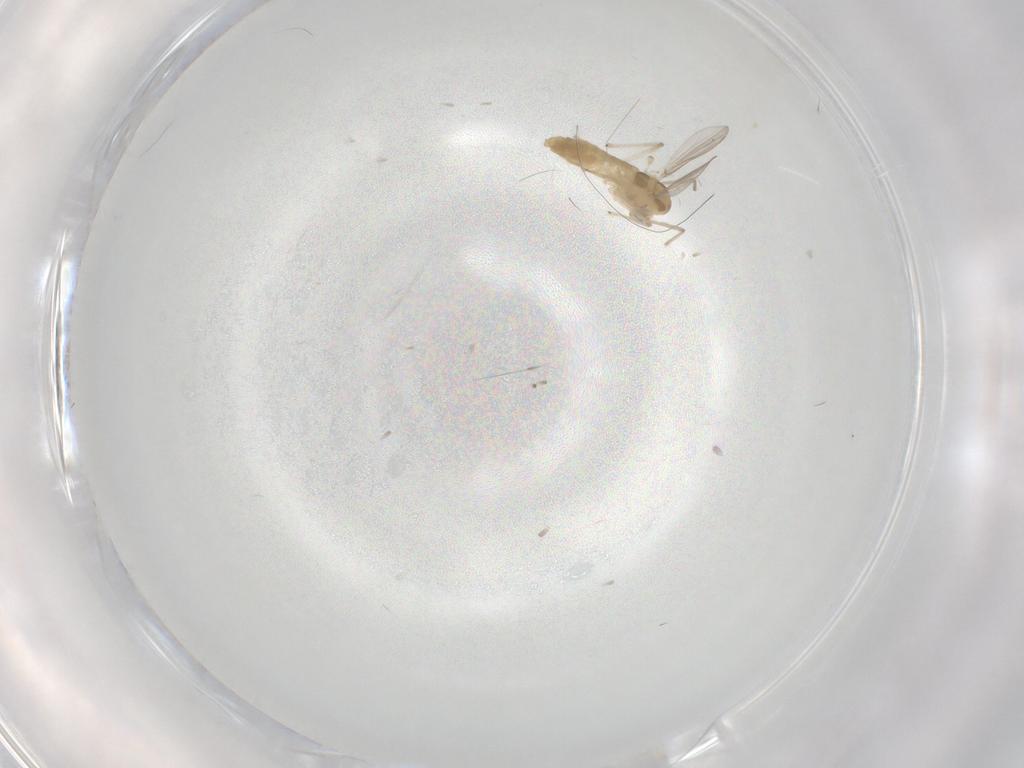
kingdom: Animalia
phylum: Arthropoda
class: Insecta
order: Diptera
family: Chironomidae
